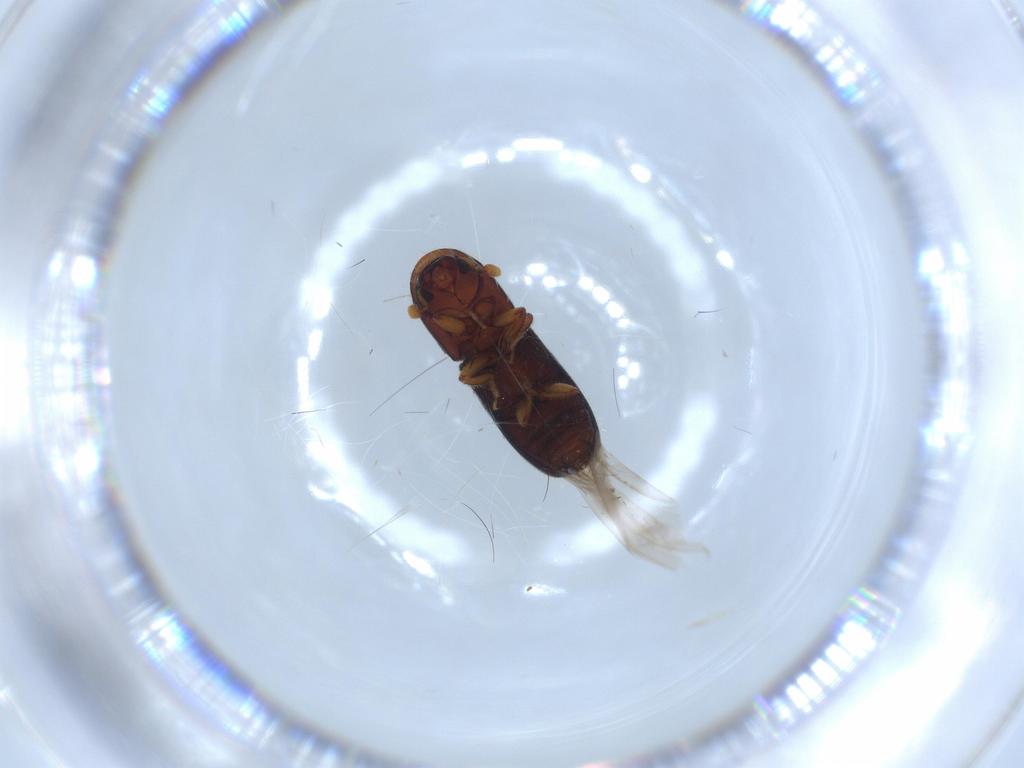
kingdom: Animalia
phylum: Arthropoda
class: Insecta
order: Coleoptera
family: Curculionidae
